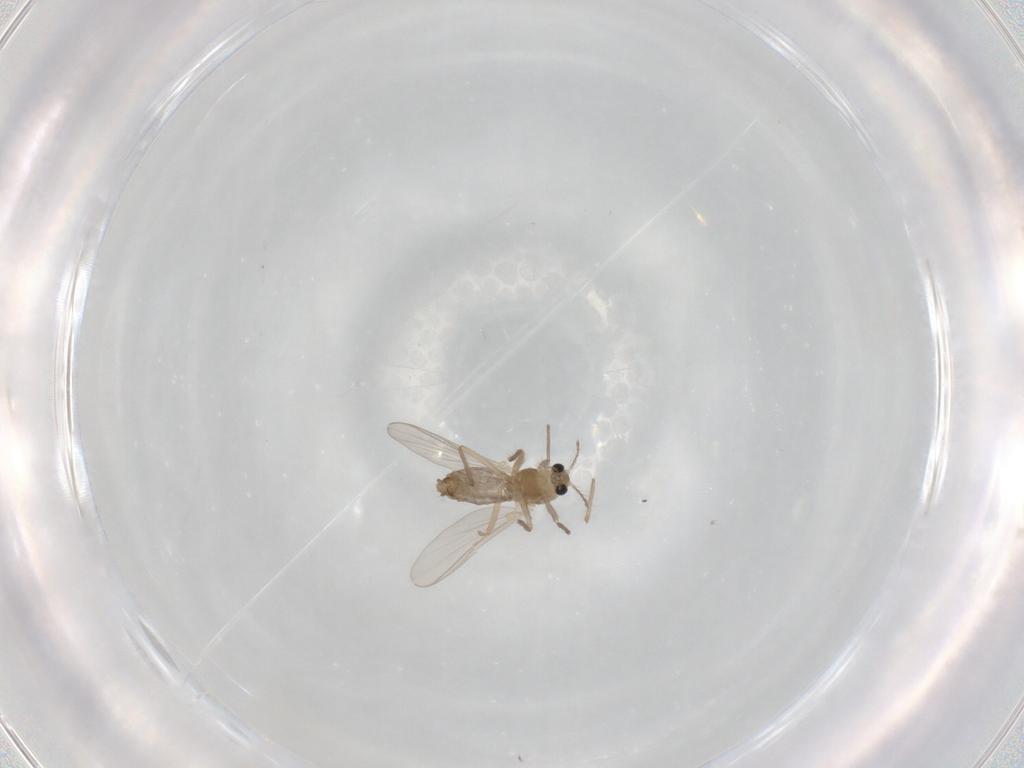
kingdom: Animalia
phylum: Arthropoda
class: Insecta
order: Diptera
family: Chironomidae
